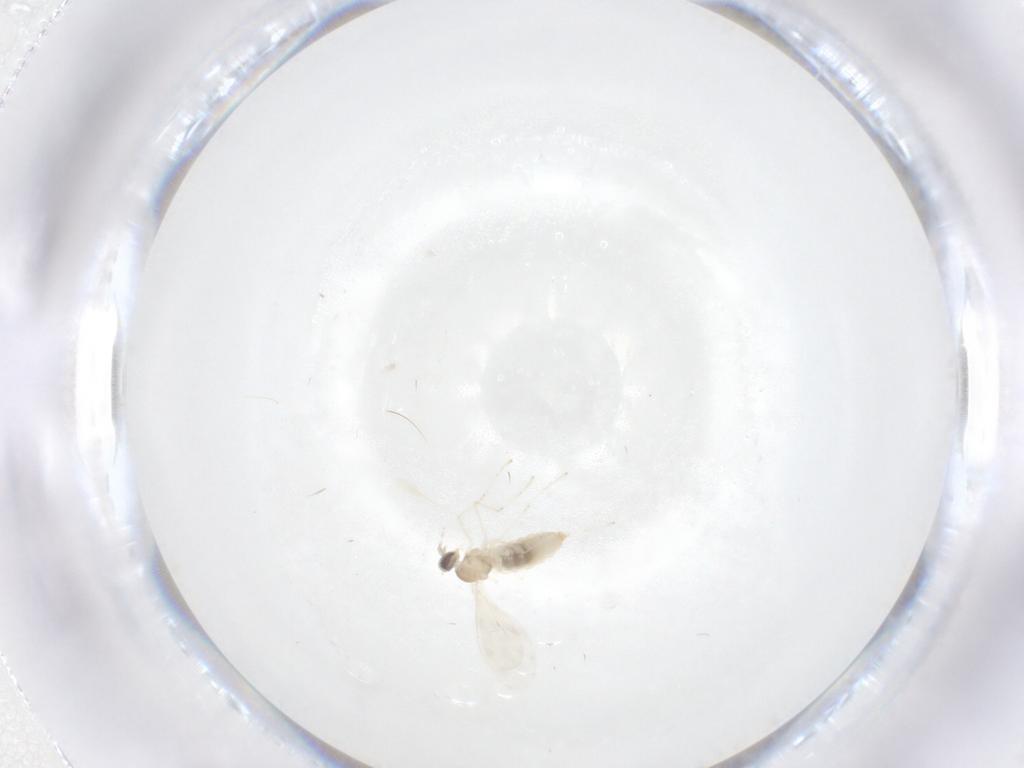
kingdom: Animalia
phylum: Arthropoda
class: Insecta
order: Diptera
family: Cecidomyiidae
